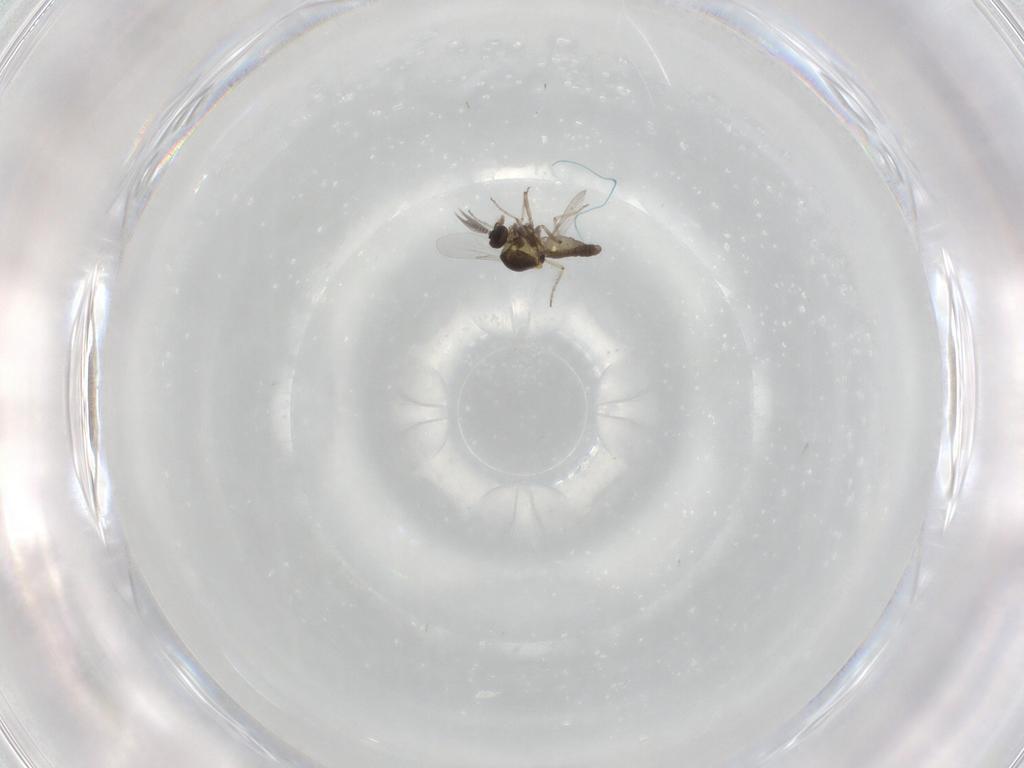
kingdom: Animalia
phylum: Arthropoda
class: Insecta
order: Diptera
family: Ceratopogonidae
